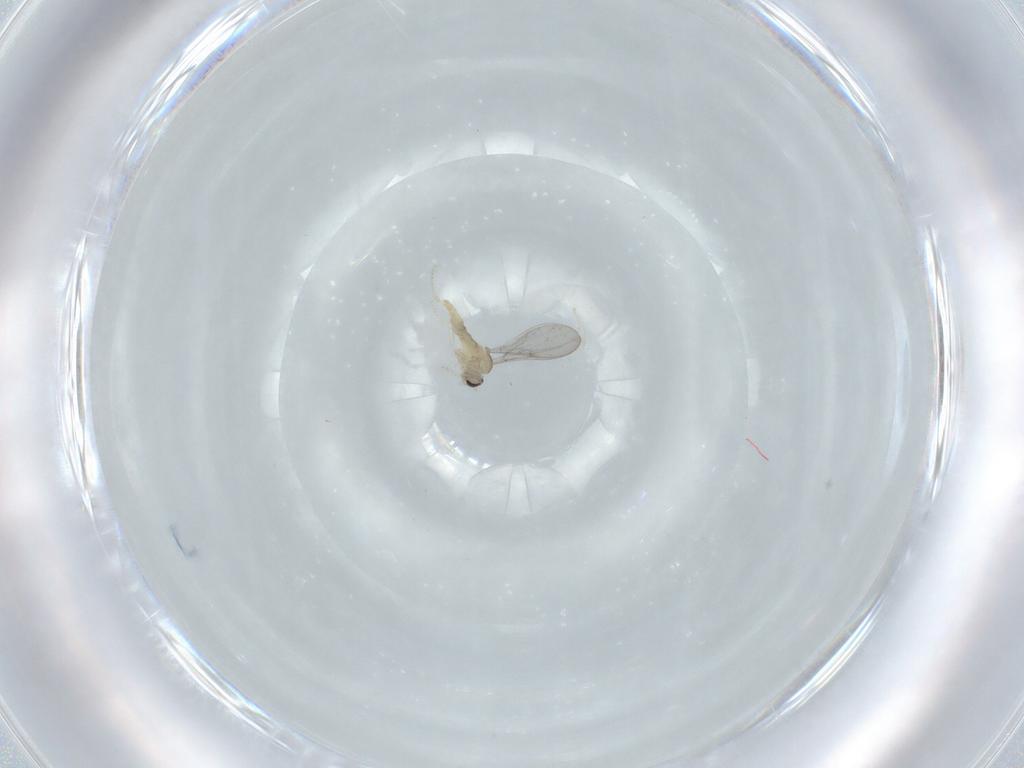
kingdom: Animalia
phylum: Arthropoda
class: Insecta
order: Diptera
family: Cecidomyiidae
